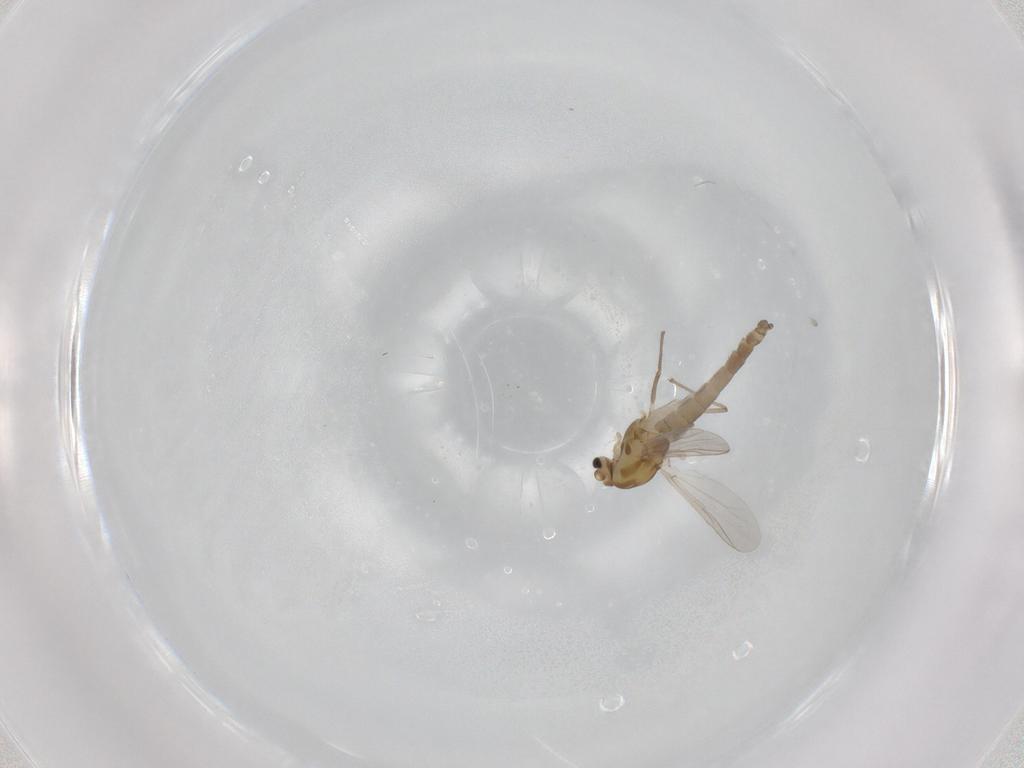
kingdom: Animalia
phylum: Arthropoda
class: Insecta
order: Diptera
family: Chironomidae
